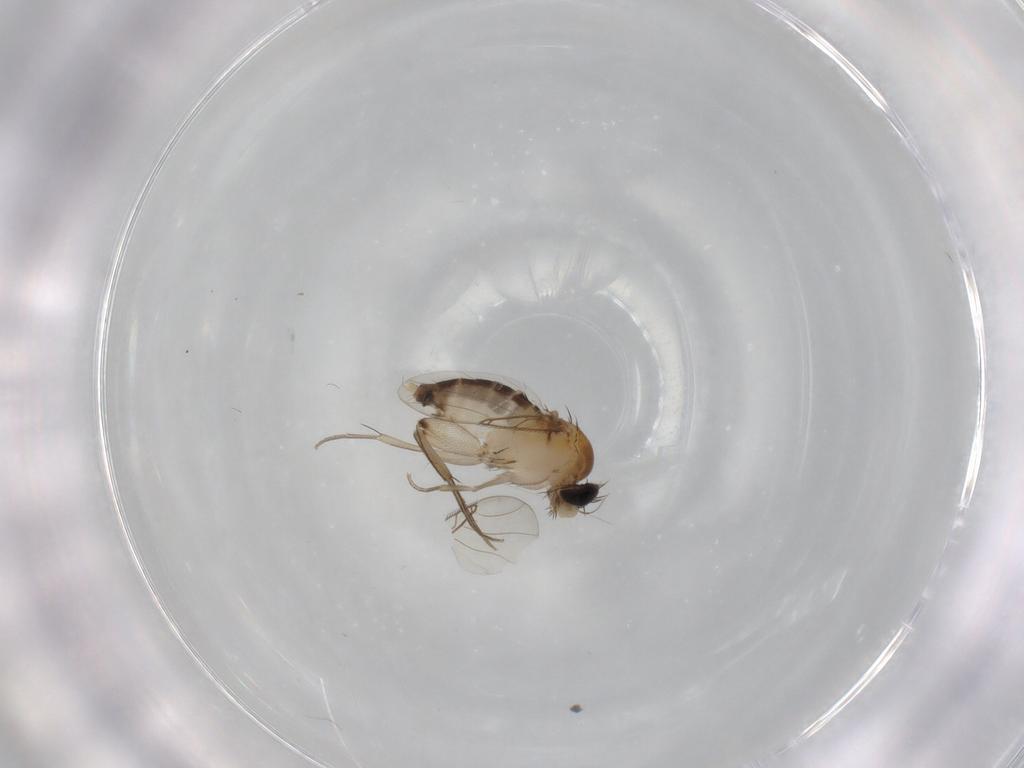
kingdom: Animalia
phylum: Arthropoda
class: Insecta
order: Diptera
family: Phoridae
